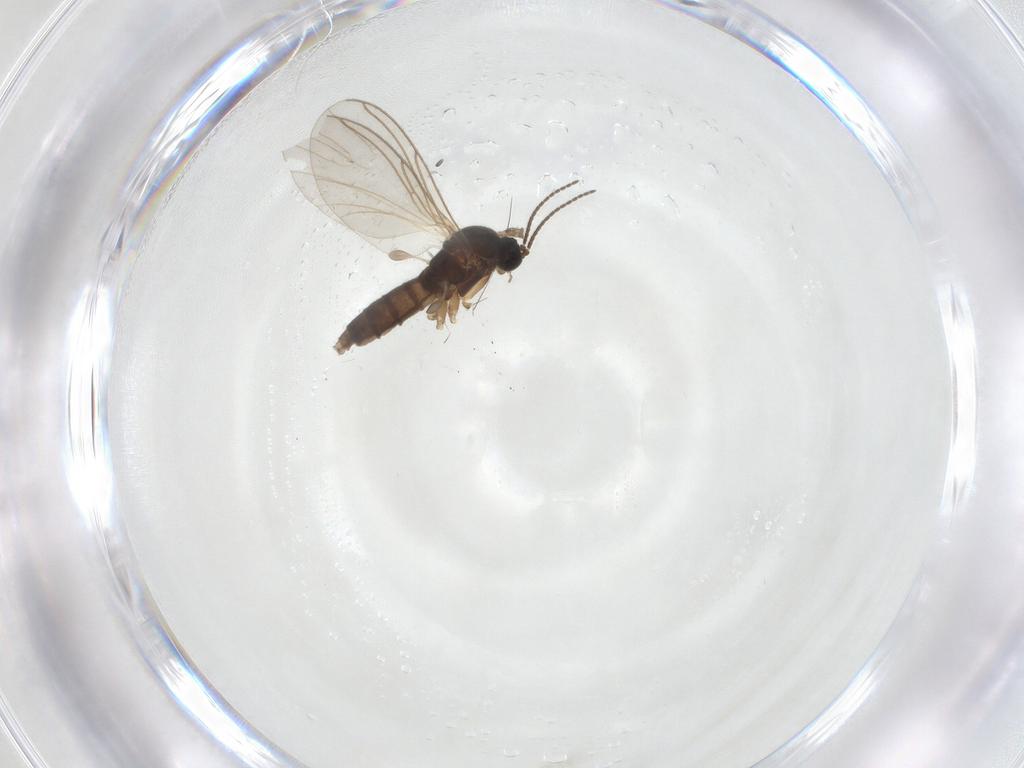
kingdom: Animalia
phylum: Arthropoda
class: Insecta
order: Diptera
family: Sciaridae
